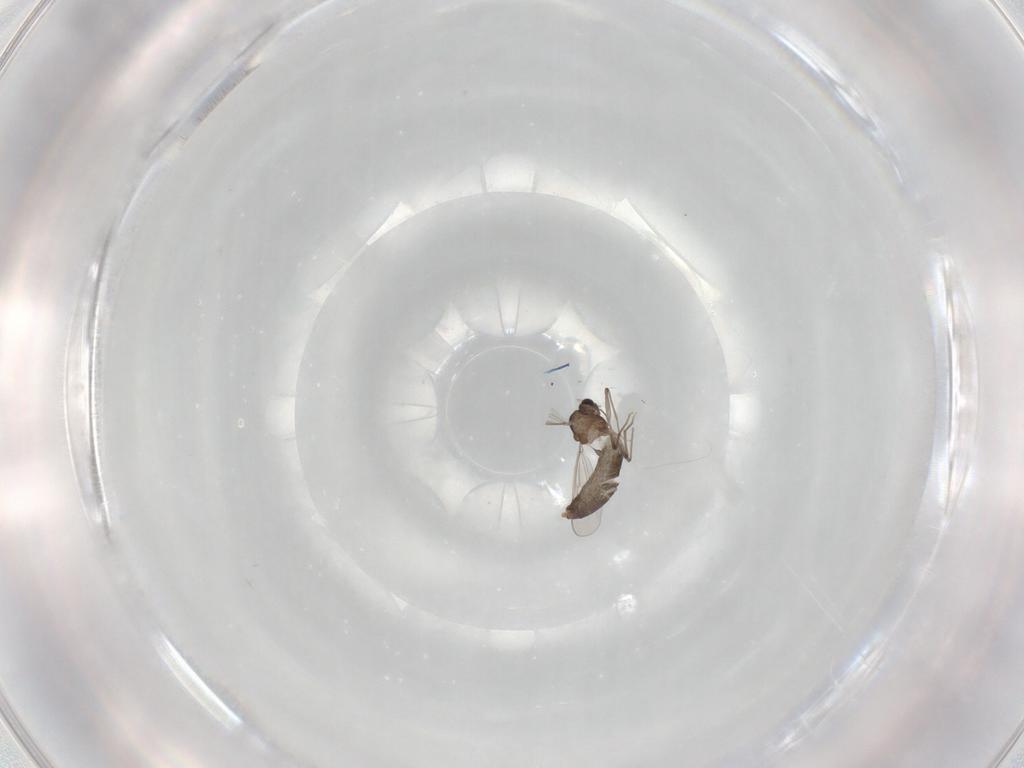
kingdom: Animalia
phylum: Arthropoda
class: Insecta
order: Diptera
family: Chironomidae
